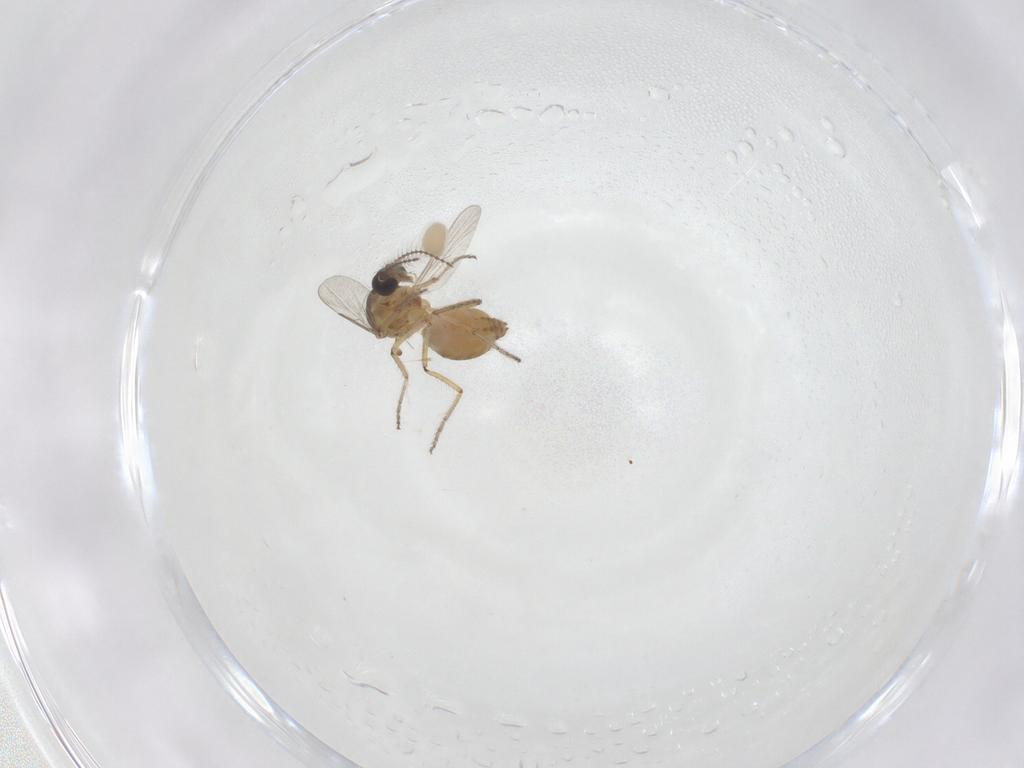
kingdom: Animalia
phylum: Arthropoda
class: Insecta
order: Diptera
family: Ceratopogonidae
